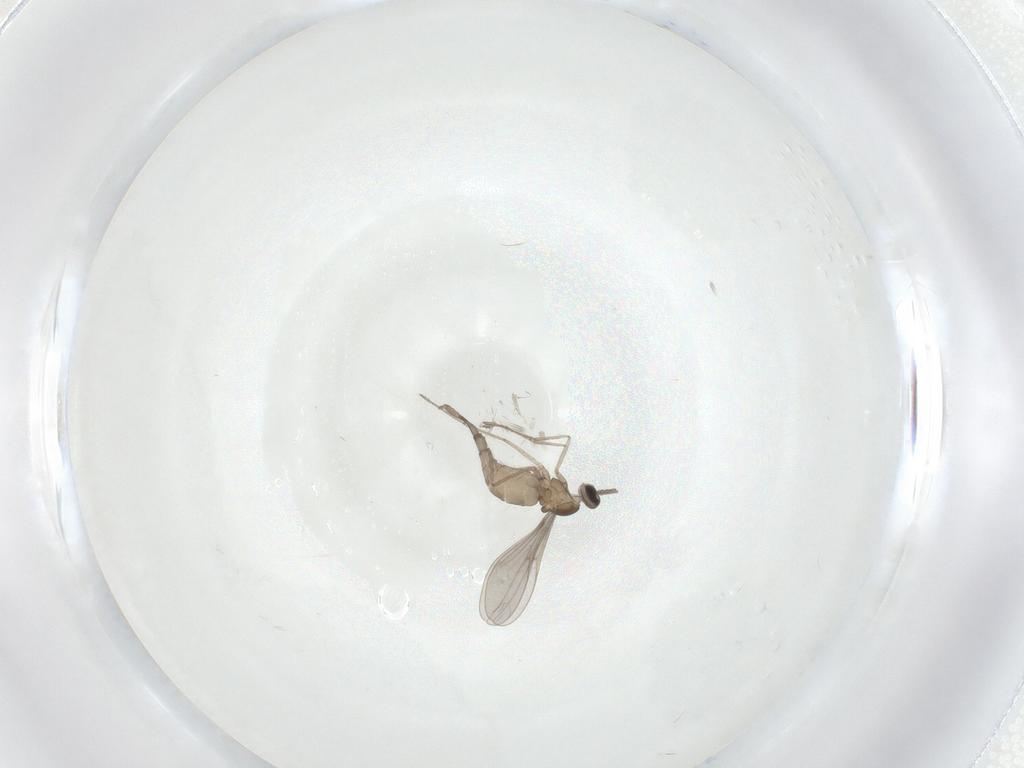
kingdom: Animalia
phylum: Arthropoda
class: Insecta
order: Diptera
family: Cecidomyiidae
